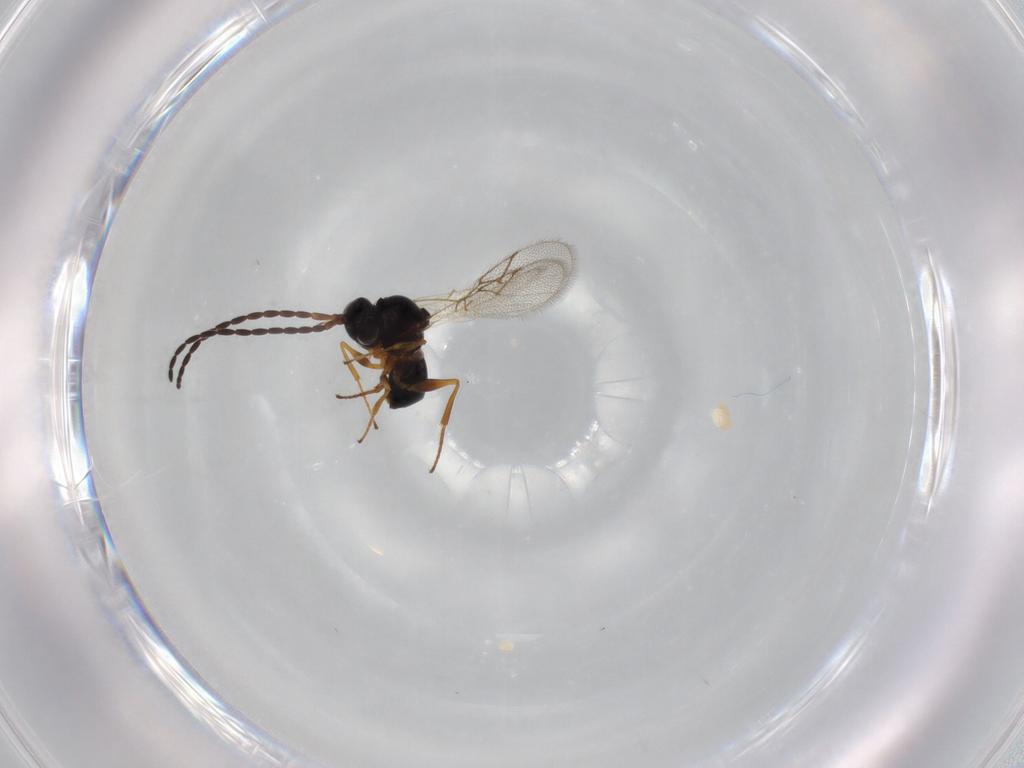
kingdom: Animalia
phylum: Arthropoda
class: Insecta
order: Hymenoptera
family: Figitidae
